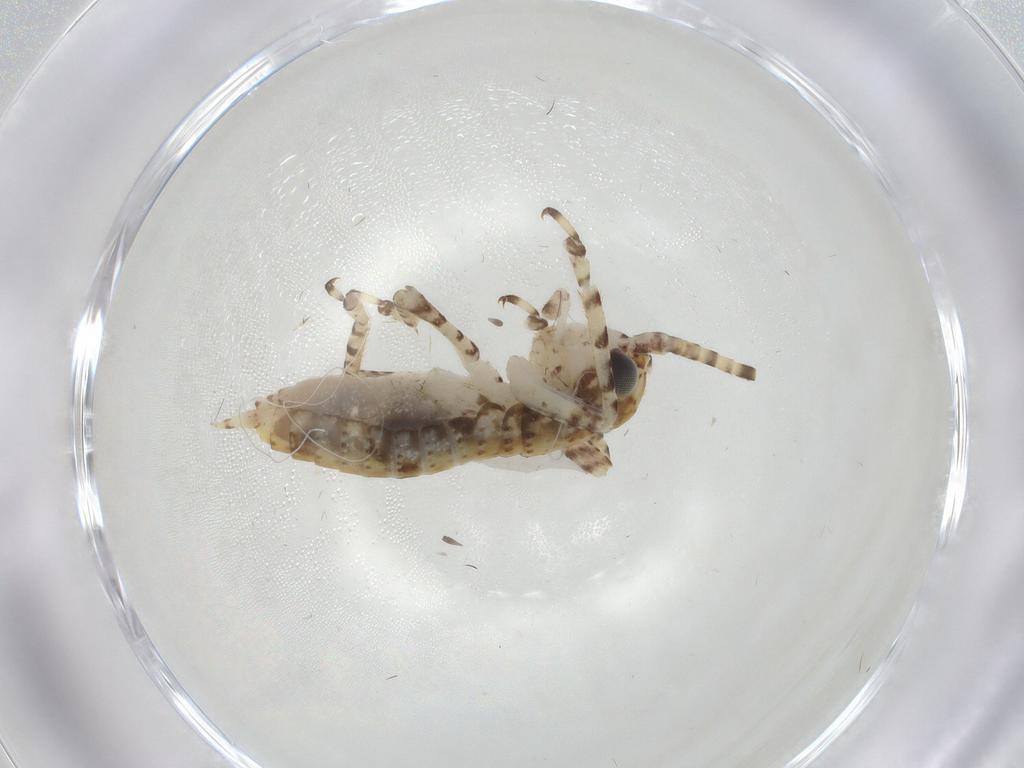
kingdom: Animalia
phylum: Arthropoda
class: Insecta
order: Orthoptera
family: Gryllidae
